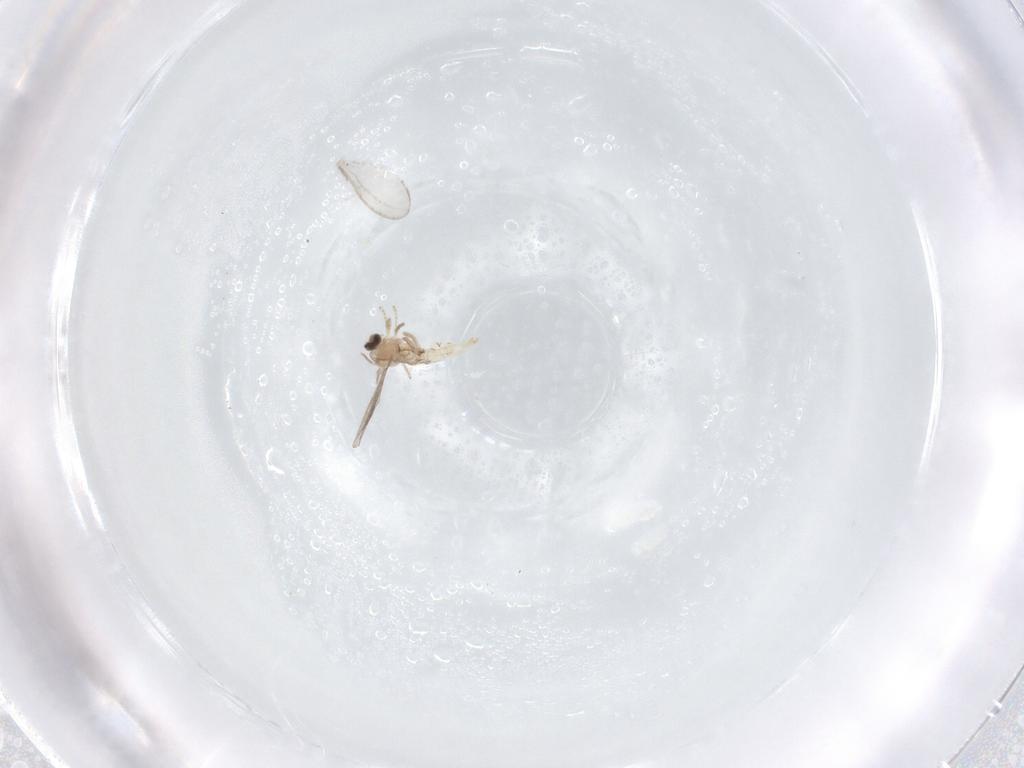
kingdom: Animalia
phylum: Arthropoda
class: Insecta
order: Diptera
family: Cecidomyiidae
